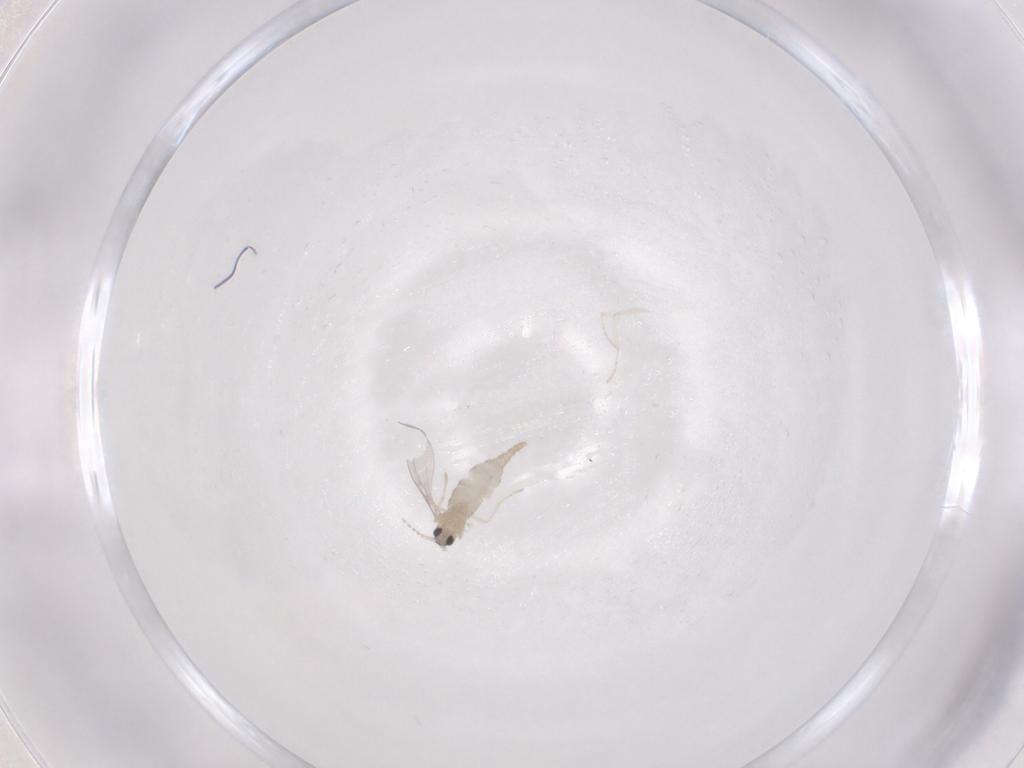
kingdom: Animalia
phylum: Arthropoda
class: Insecta
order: Diptera
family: Cecidomyiidae
